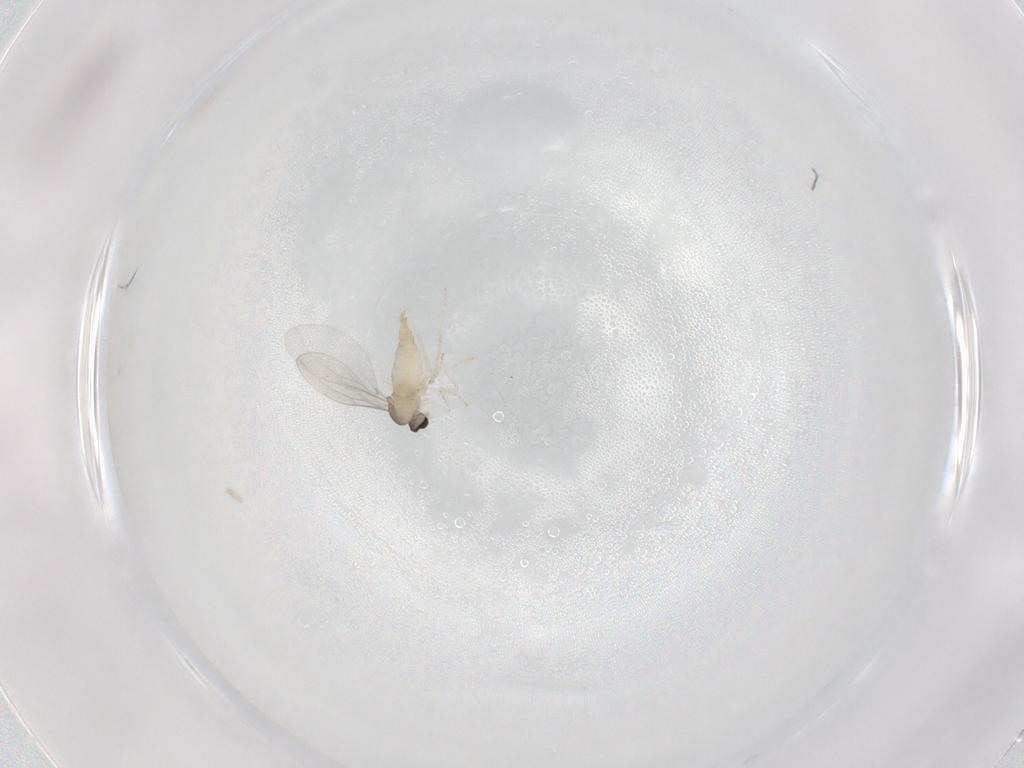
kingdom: Animalia
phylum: Arthropoda
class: Insecta
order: Diptera
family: Cecidomyiidae
